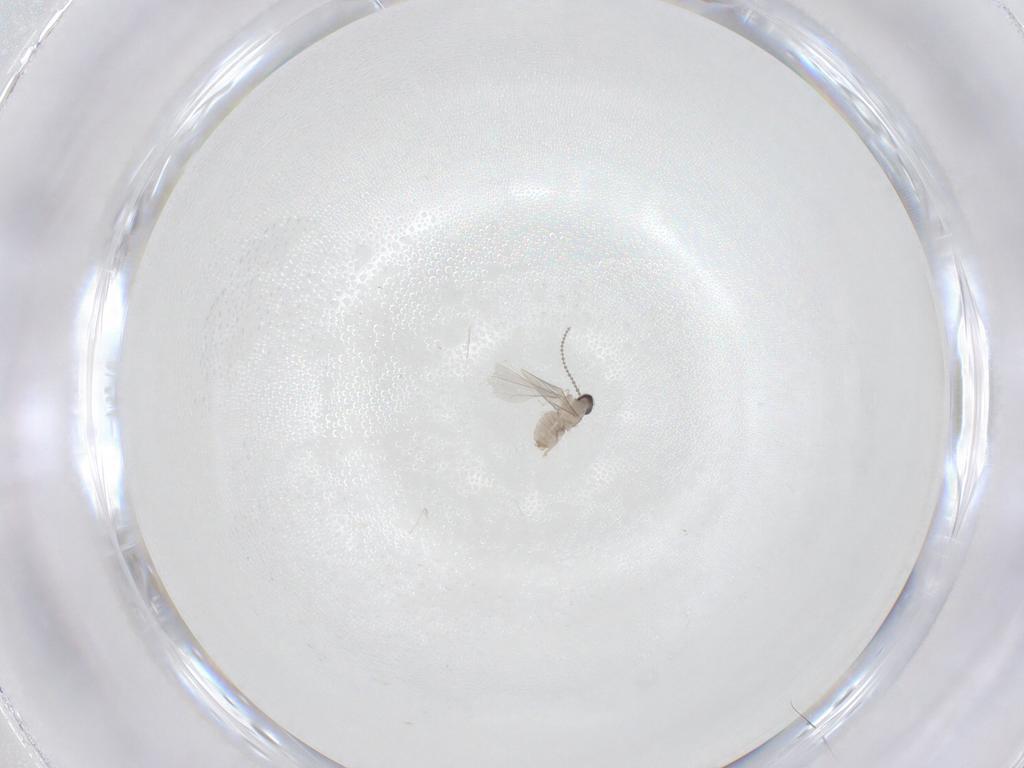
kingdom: Animalia
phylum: Arthropoda
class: Insecta
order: Diptera
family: Cecidomyiidae
